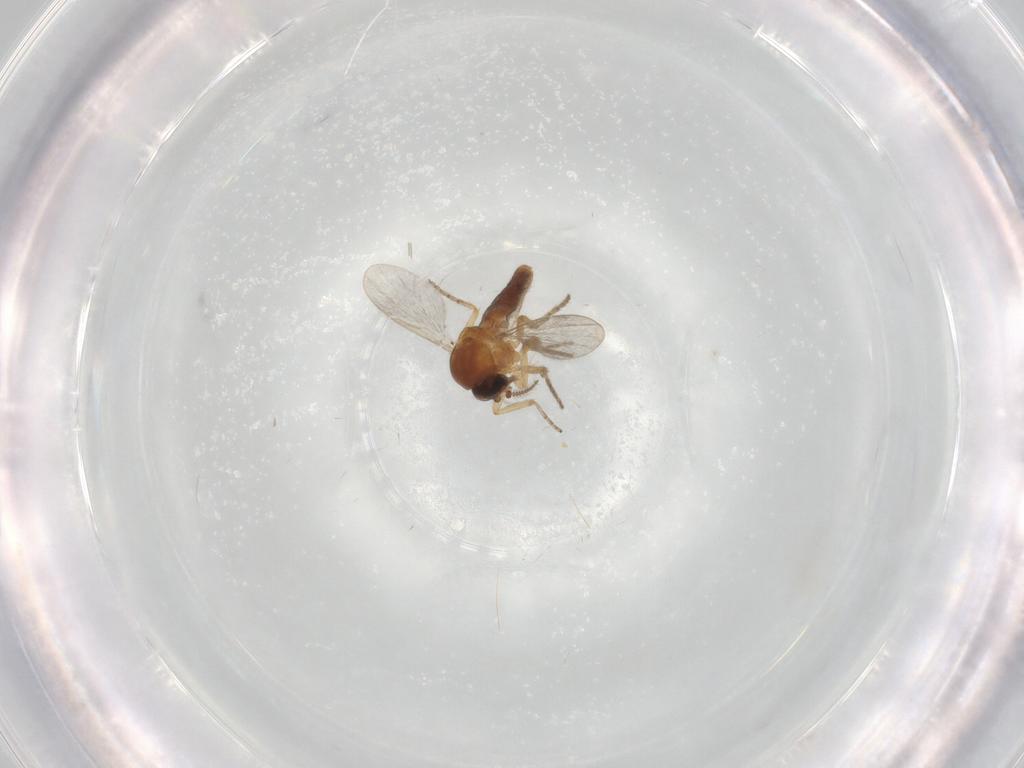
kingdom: Animalia
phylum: Arthropoda
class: Insecta
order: Diptera
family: Ceratopogonidae
